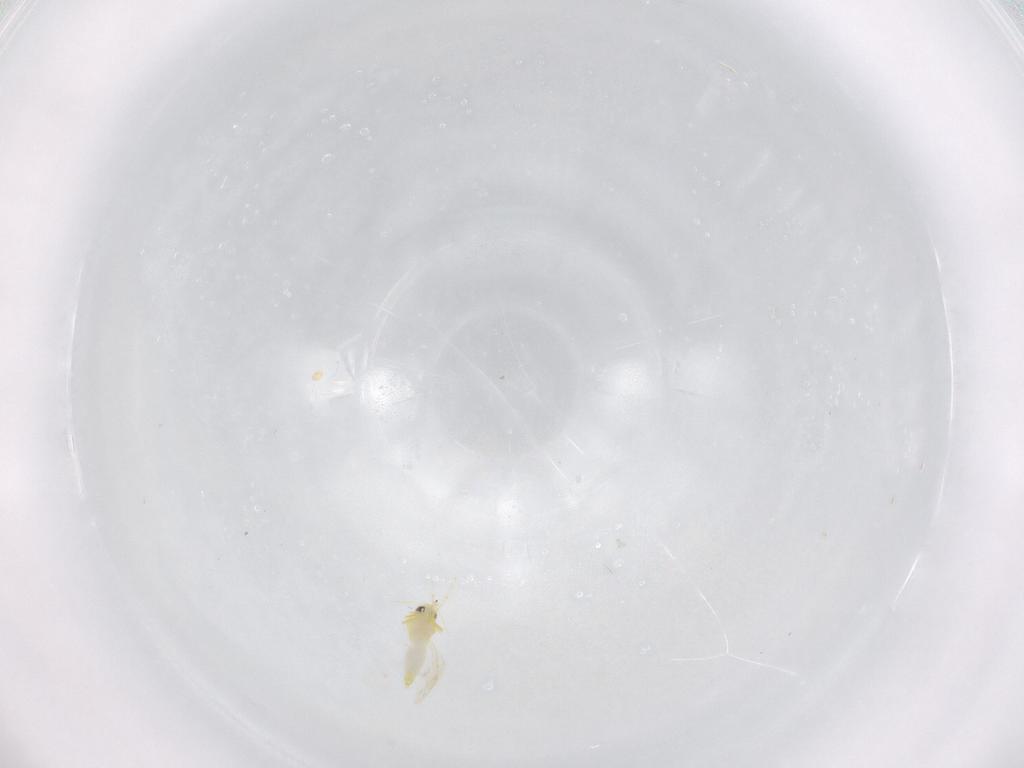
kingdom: Animalia
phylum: Arthropoda
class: Insecta
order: Hemiptera
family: Aleyrodidae
